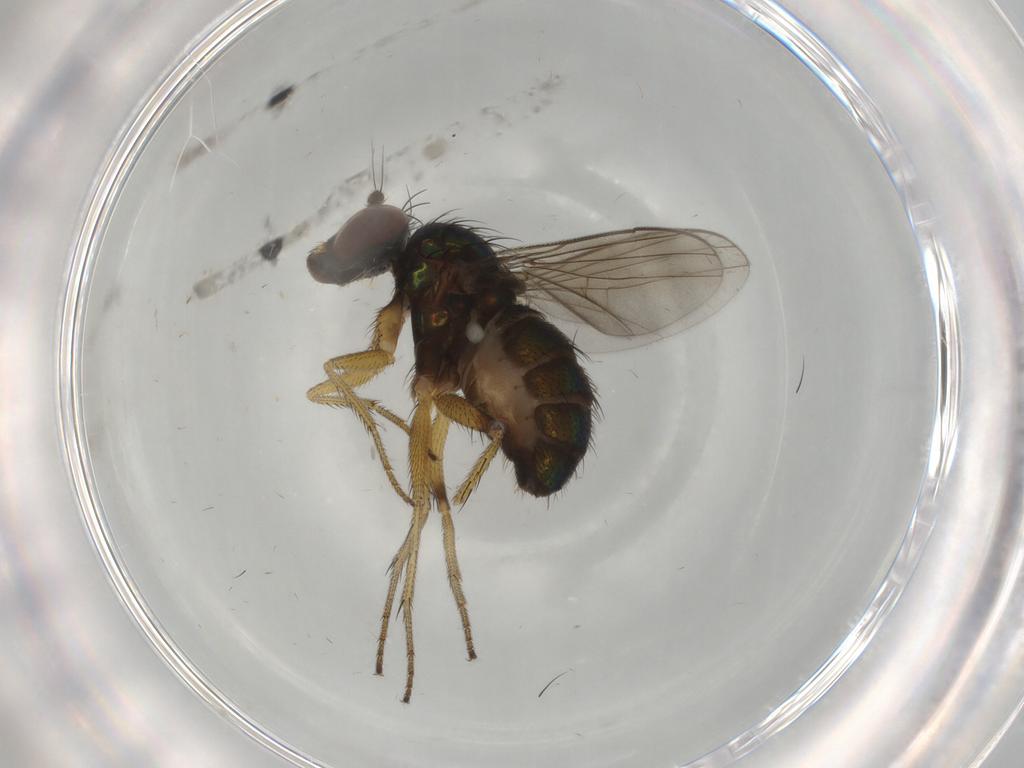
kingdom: Animalia
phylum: Arthropoda
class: Insecta
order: Diptera
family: Dolichopodidae
